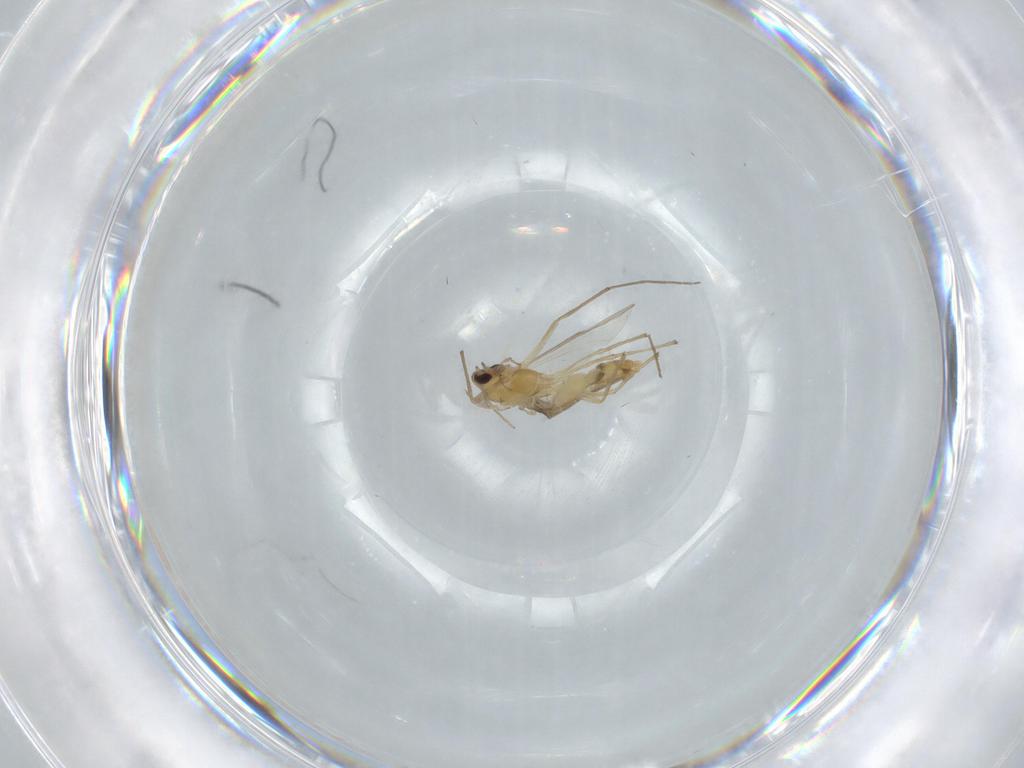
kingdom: Animalia
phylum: Arthropoda
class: Insecta
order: Diptera
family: Chironomidae
